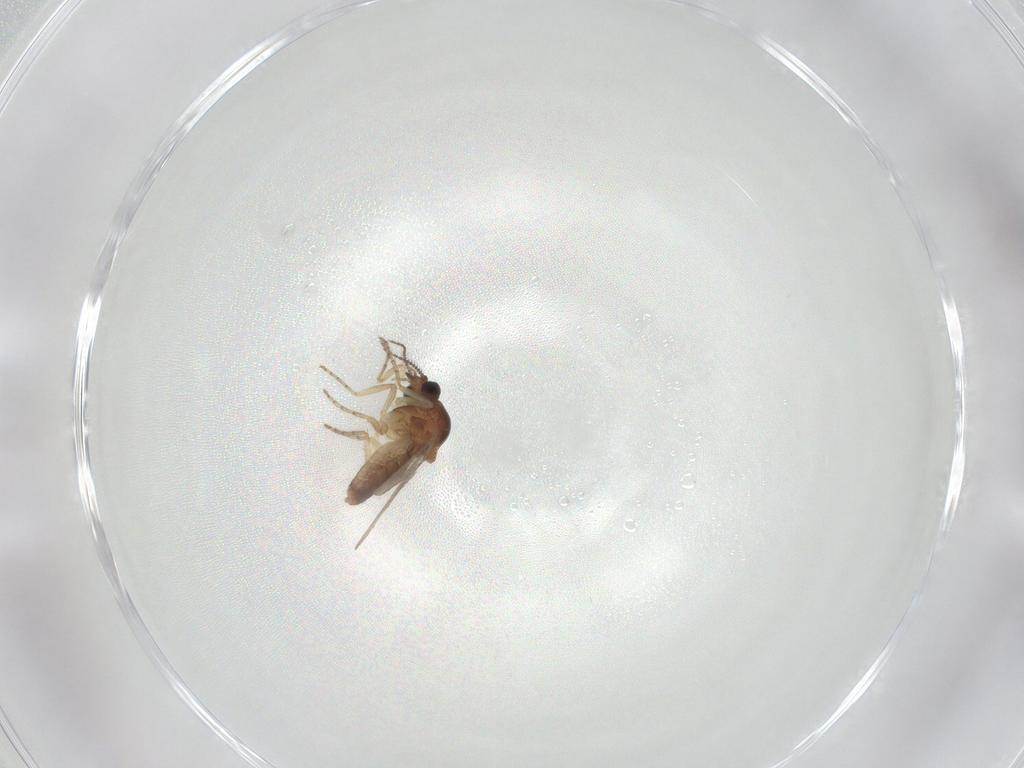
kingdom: Animalia
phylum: Arthropoda
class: Insecta
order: Diptera
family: Ceratopogonidae
